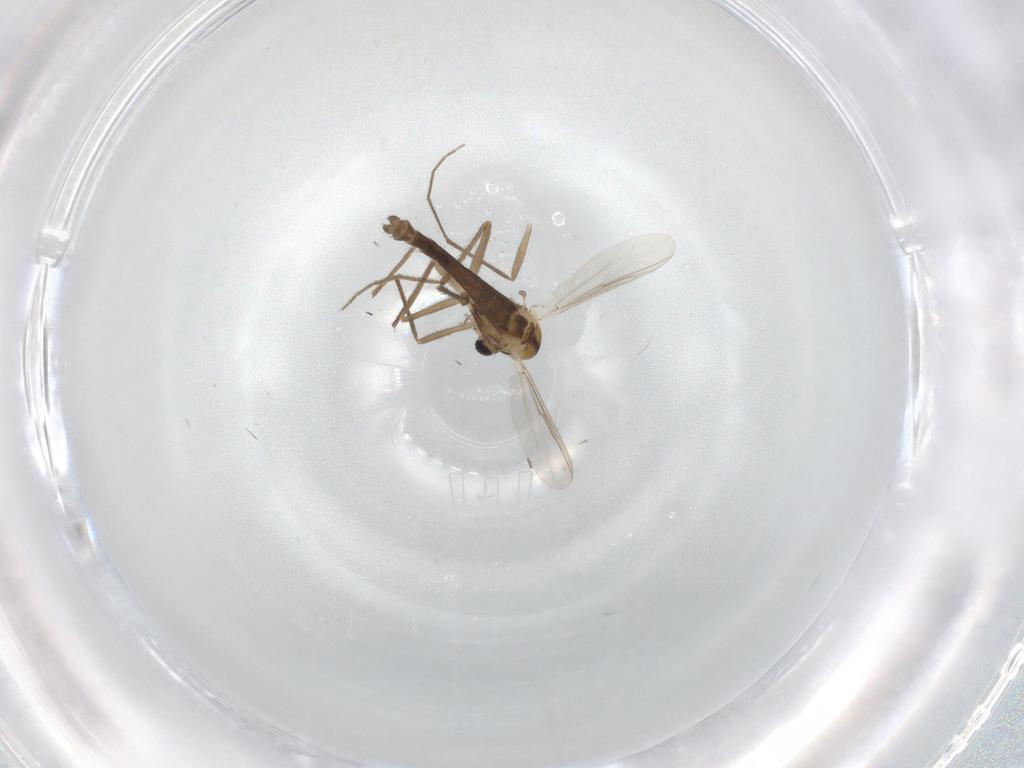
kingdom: Animalia
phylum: Arthropoda
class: Insecta
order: Diptera
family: Chironomidae
